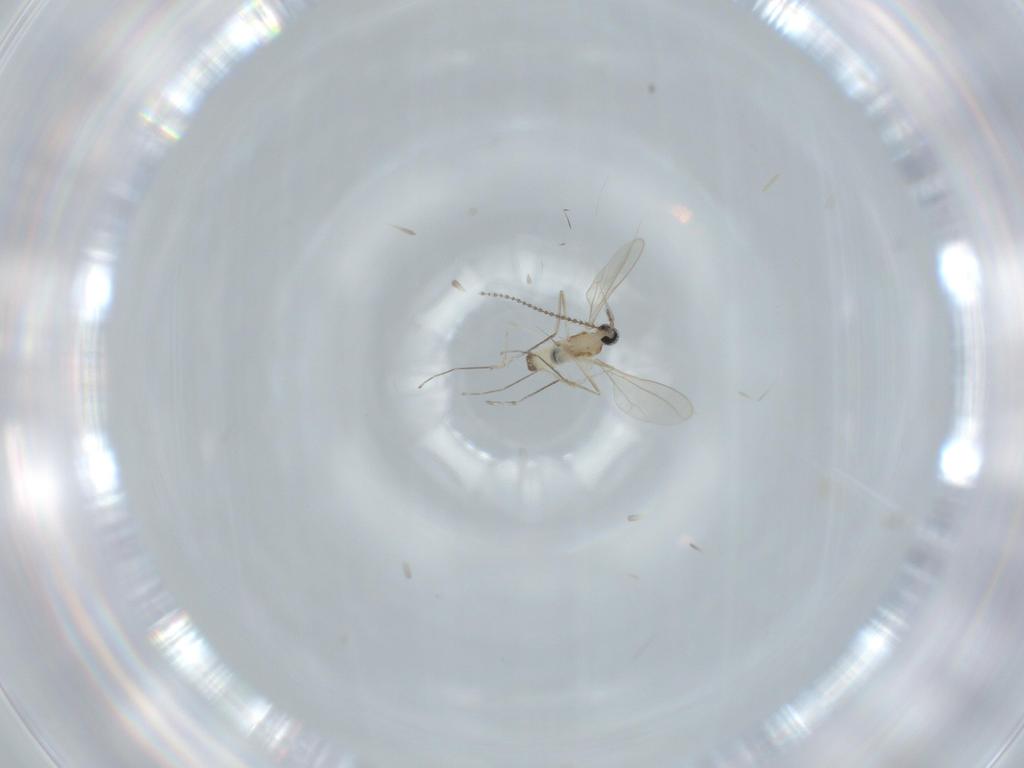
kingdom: Animalia
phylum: Arthropoda
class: Insecta
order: Diptera
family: Milichiidae
